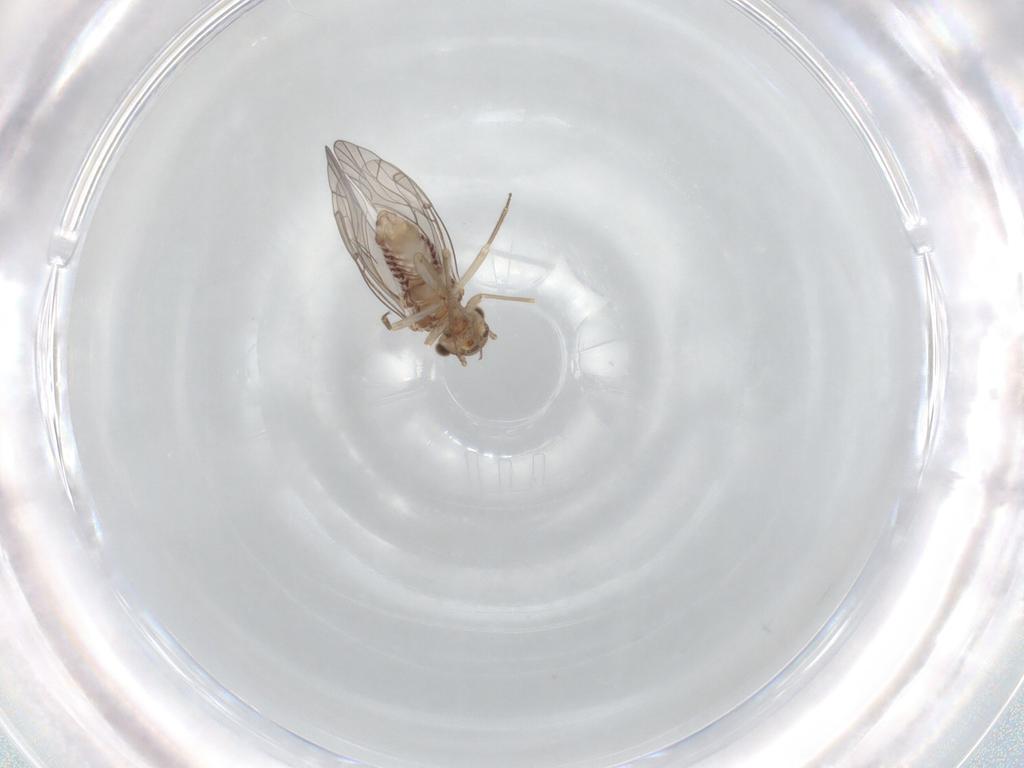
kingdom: Animalia
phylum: Arthropoda
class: Insecta
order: Psocodea
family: Lachesillidae
